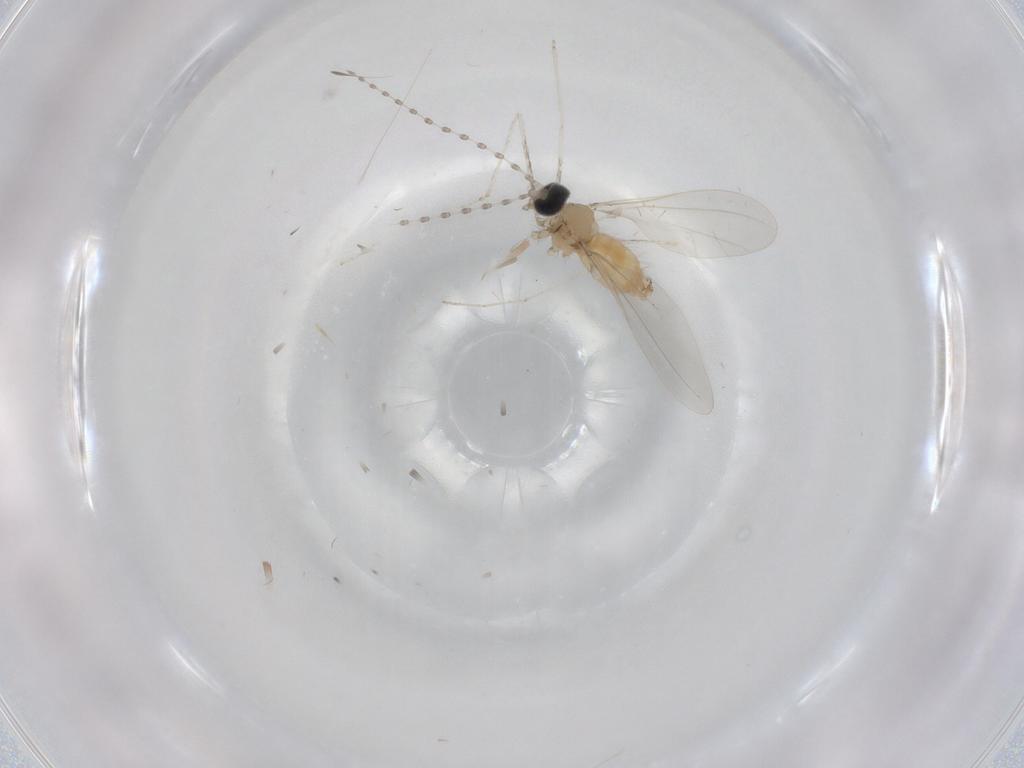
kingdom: Animalia
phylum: Arthropoda
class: Insecta
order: Diptera
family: Cecidomyiidae
